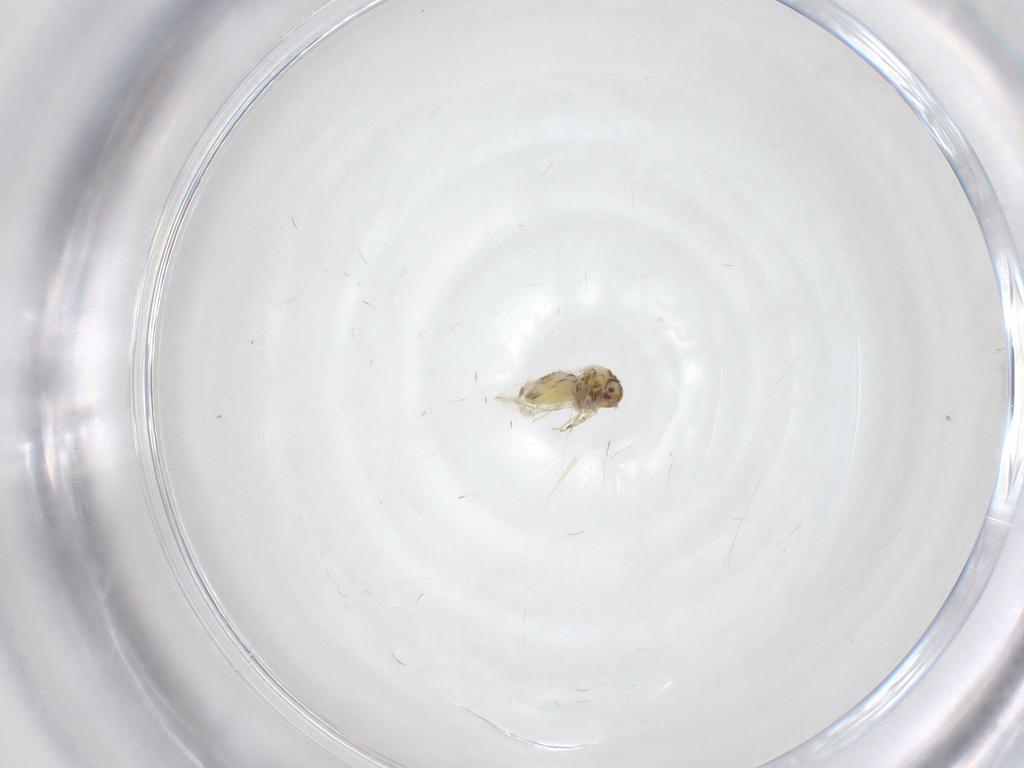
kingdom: Animalia
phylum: Arthropoda
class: Insecta
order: Hemiptera
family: Aleyrodidae
